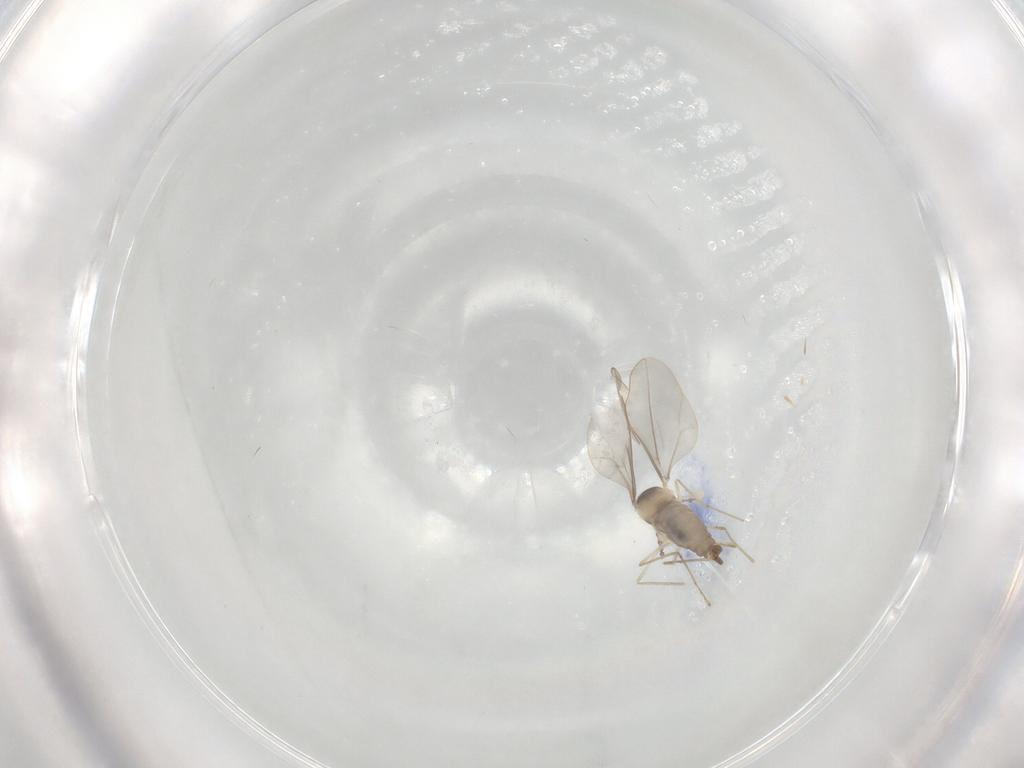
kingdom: Animalia
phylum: Arthropoda
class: Insecta
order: Diptera
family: Cecidomyiidae
